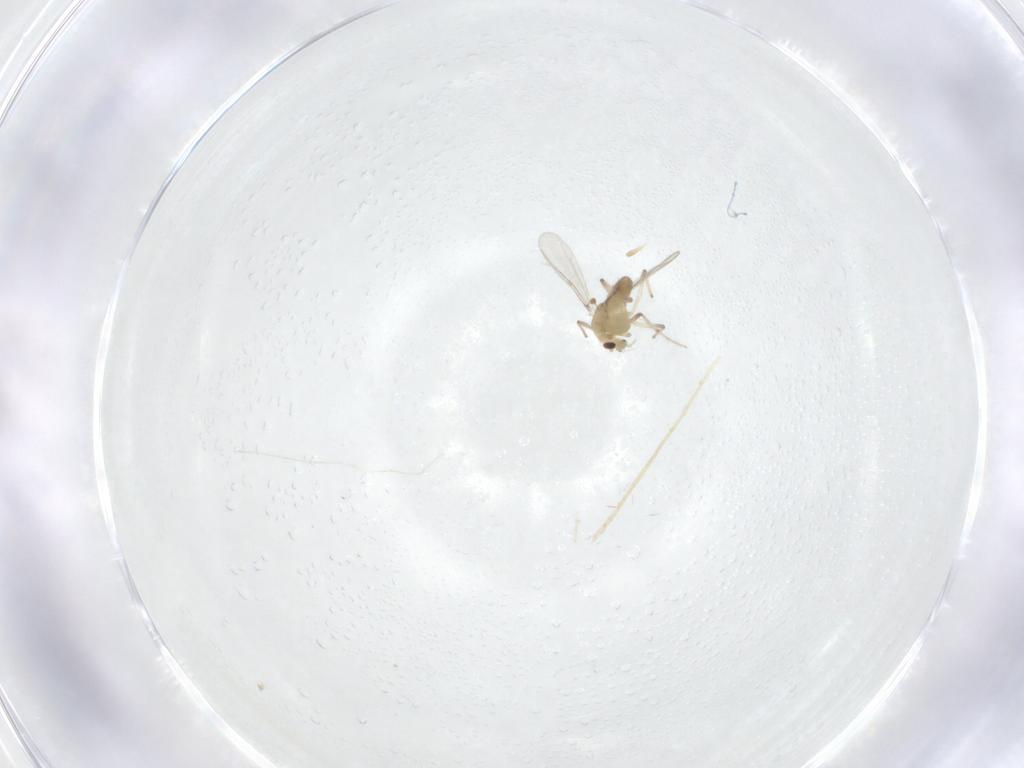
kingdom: Animalia
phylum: Arthropoda
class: Insecta
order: Diptera
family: Chironomidae
